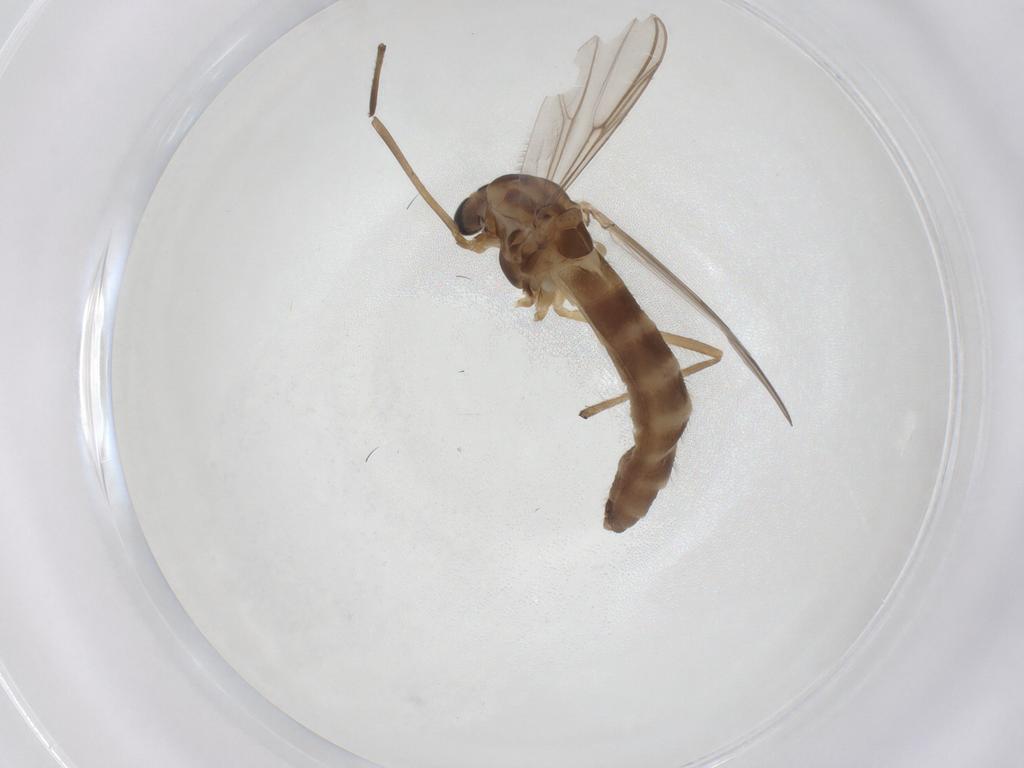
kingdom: Animalia
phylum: Arthropoda
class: Insecta
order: Diptera
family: Chironomidae
